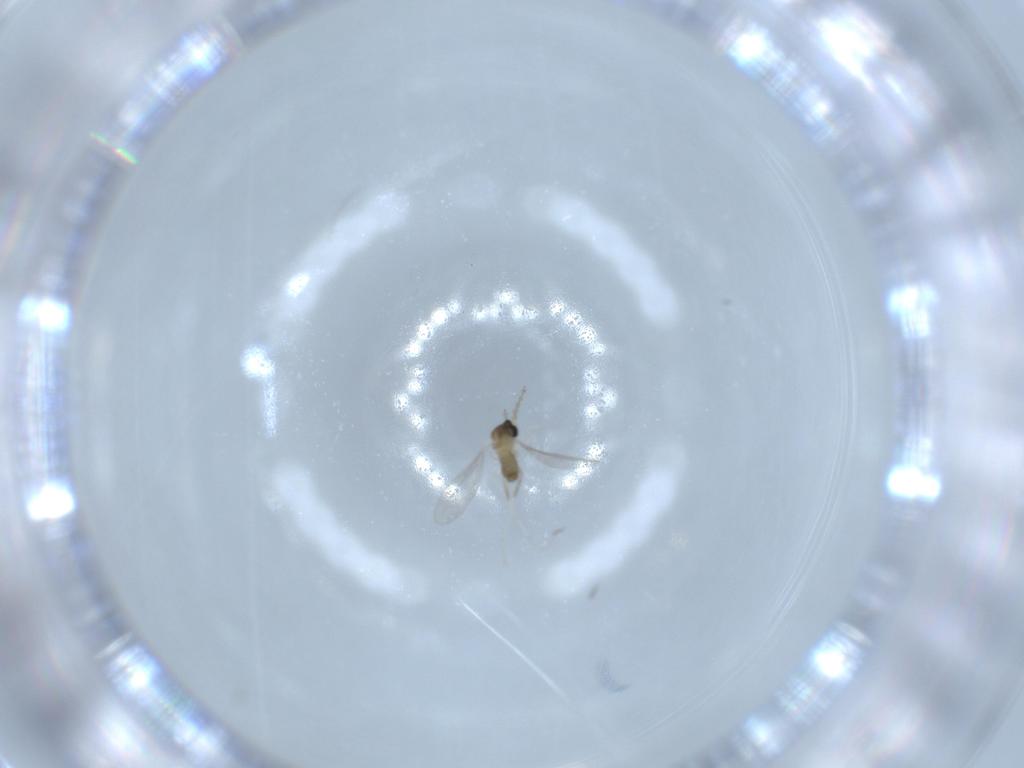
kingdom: Animalia
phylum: Arthropoda
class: Insecta
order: Diptera
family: Cecidomyiidae
